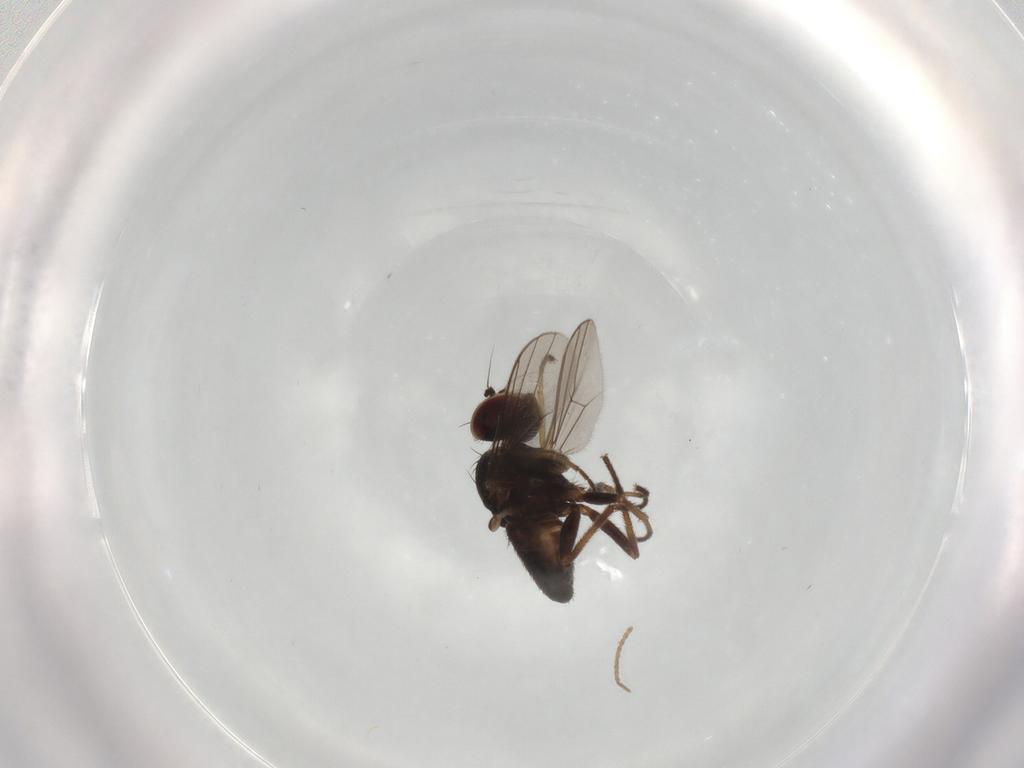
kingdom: Animalia
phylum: Arthropoda
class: Insecta
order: Diptera
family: Dolichopodidae
